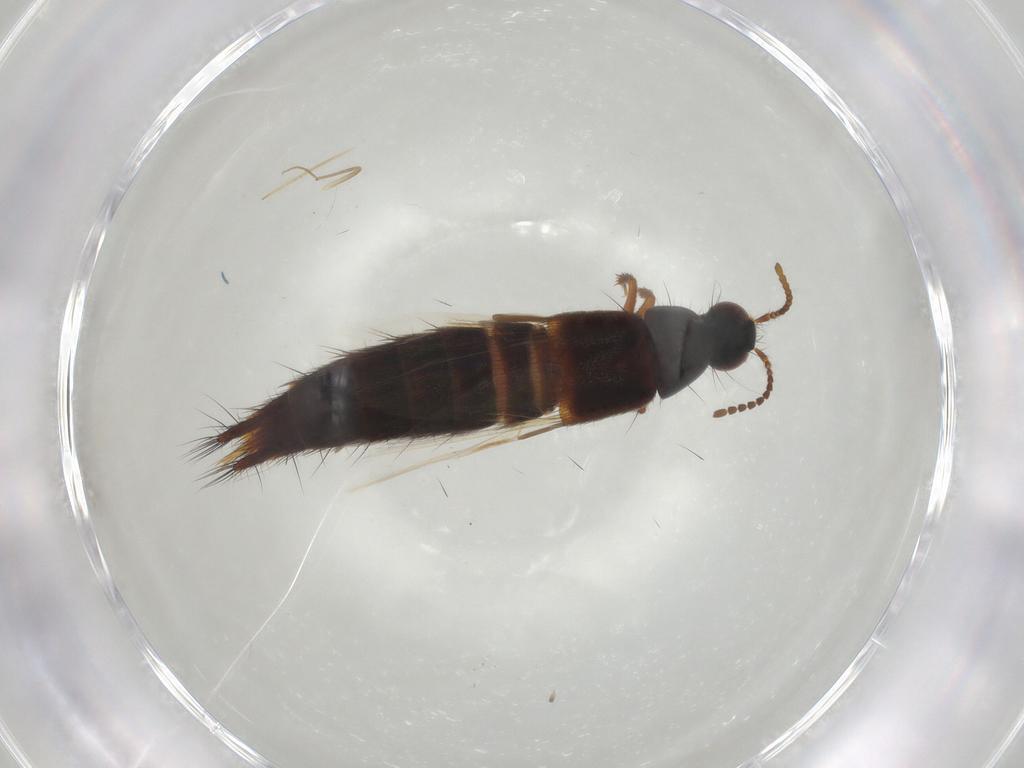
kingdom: Animalia
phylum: Arthropoda
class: Insecta
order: Coleoptera
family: Staphylinidae
